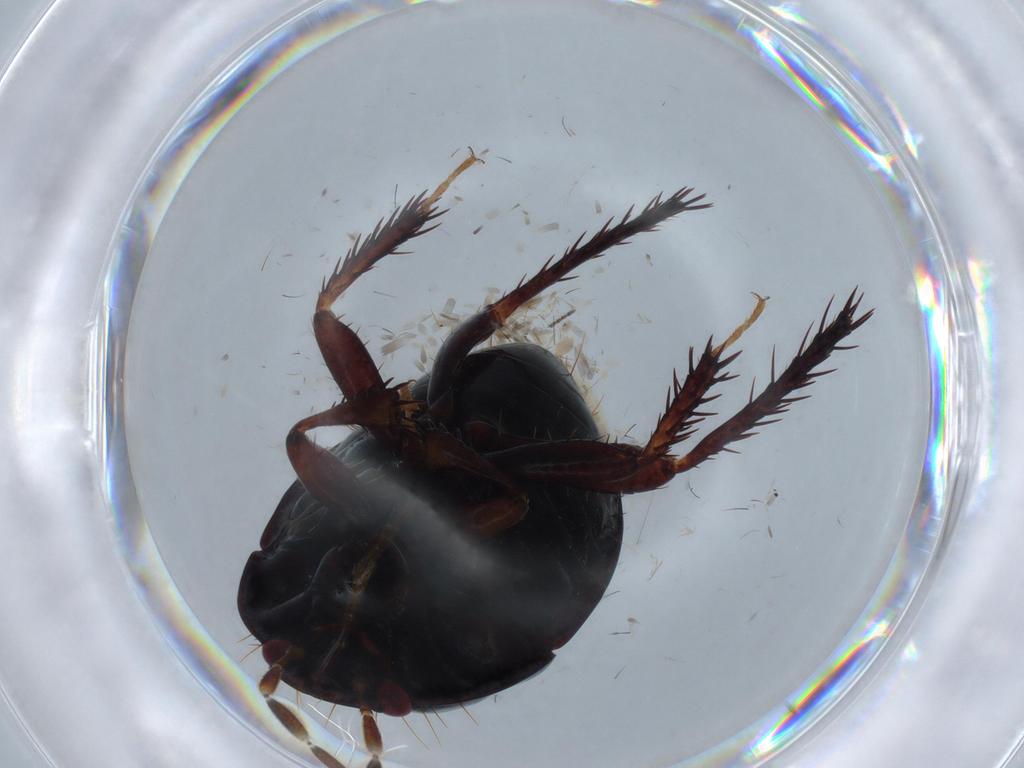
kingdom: Animalia
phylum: Arthropoda
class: Insecta
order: Hemiptera
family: Cydnidae
